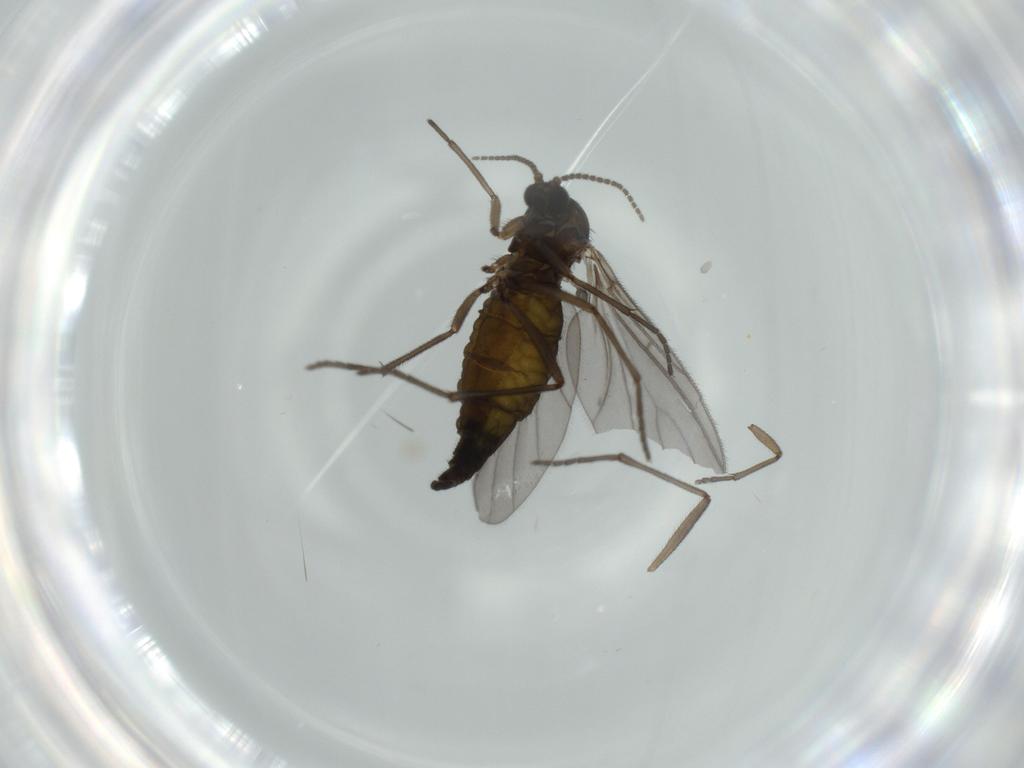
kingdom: Animalia
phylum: Arthropoda
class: Insecta
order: Diptera
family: Sciaridae
